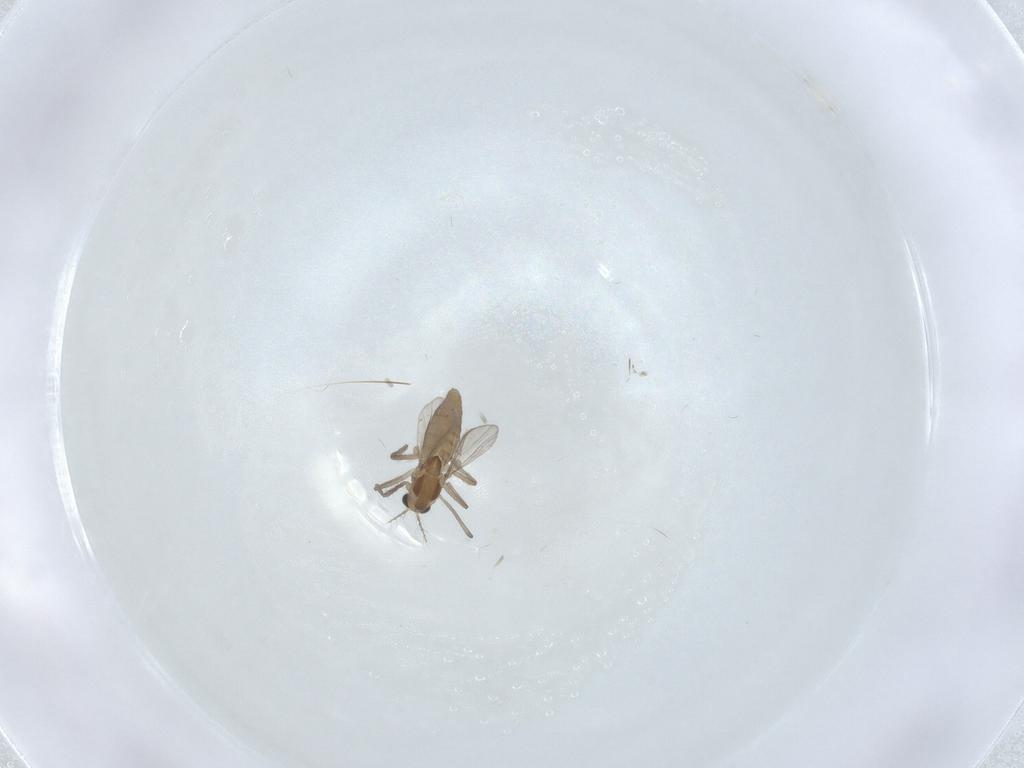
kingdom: Animalia
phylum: Arthropoda
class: Insecta
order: Diptera
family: Chironomidae
